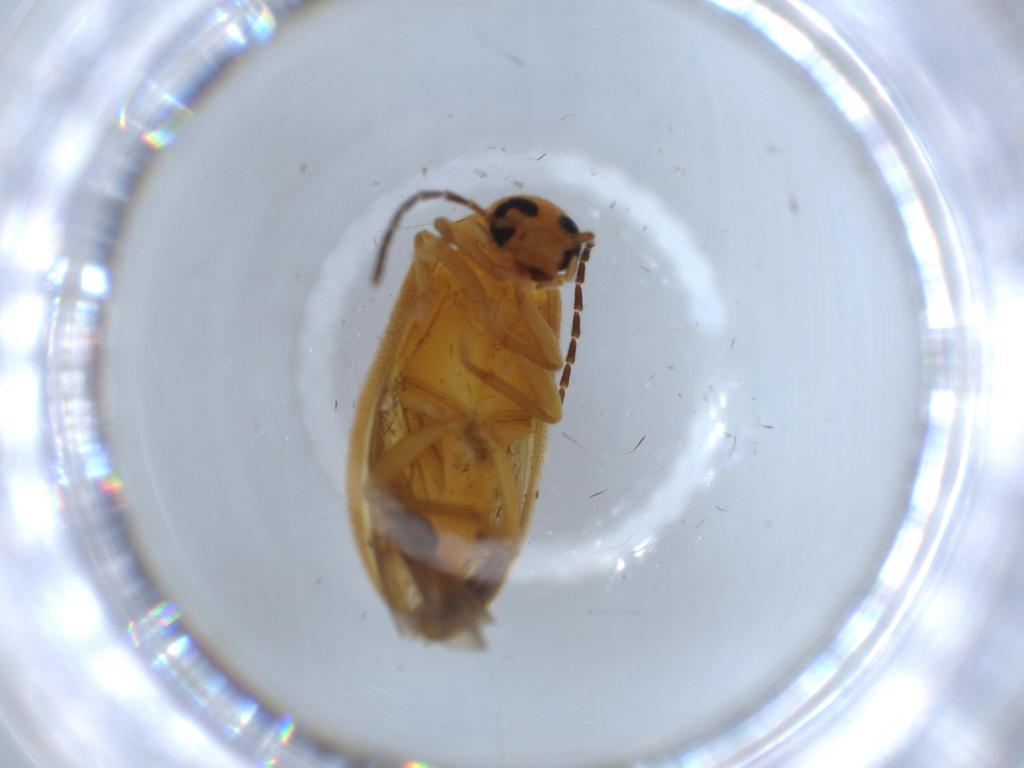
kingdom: Animalia
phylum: Arthropoda
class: Insecta
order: Coleoptera
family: Scraptiidae
